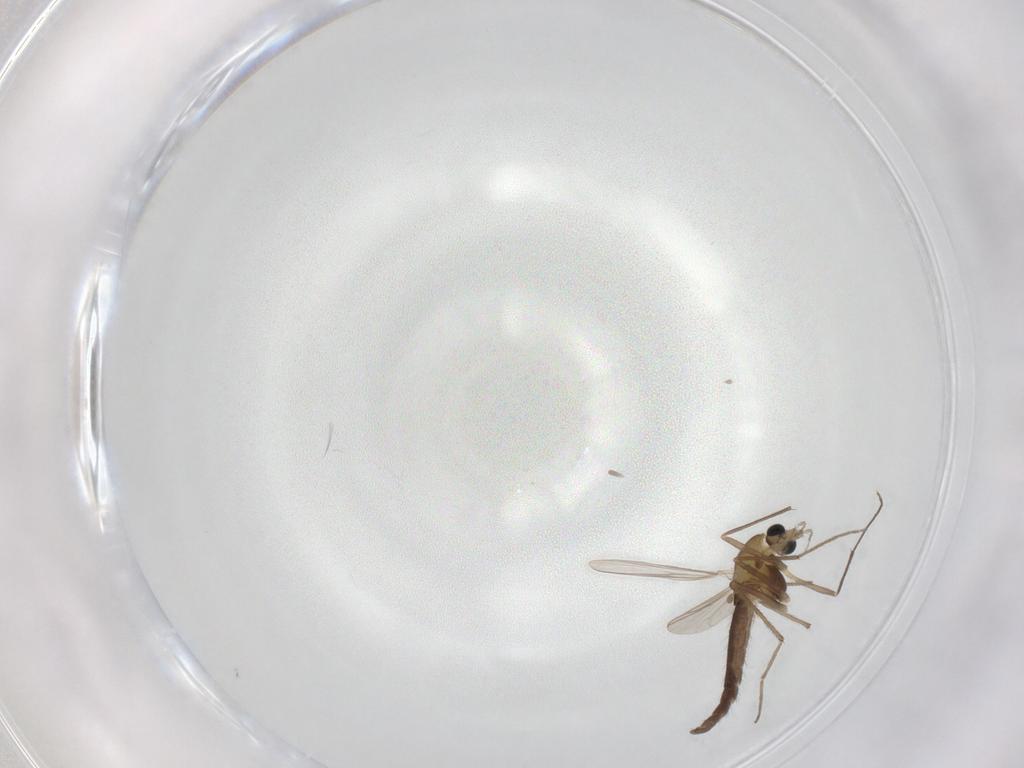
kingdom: Animalia
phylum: Arthropoda
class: Insecta
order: Diptera
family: Chironomidae
